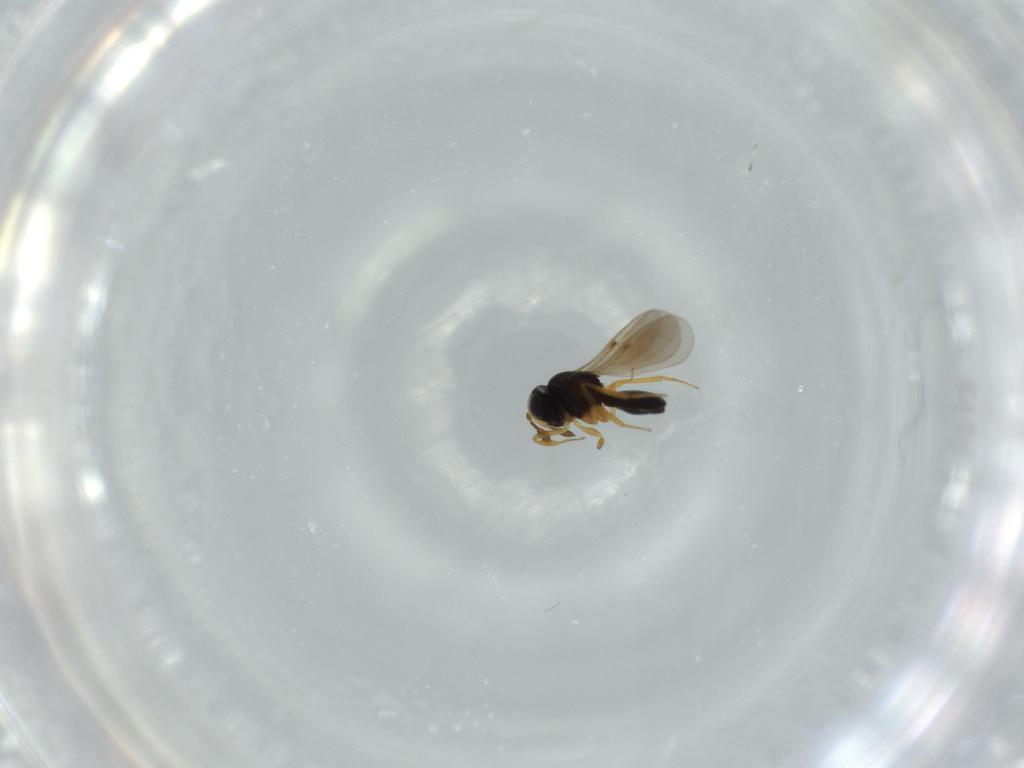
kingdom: Animalia
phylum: Arthropoda
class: Insecta
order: Hymenoptera
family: Scelionidae
